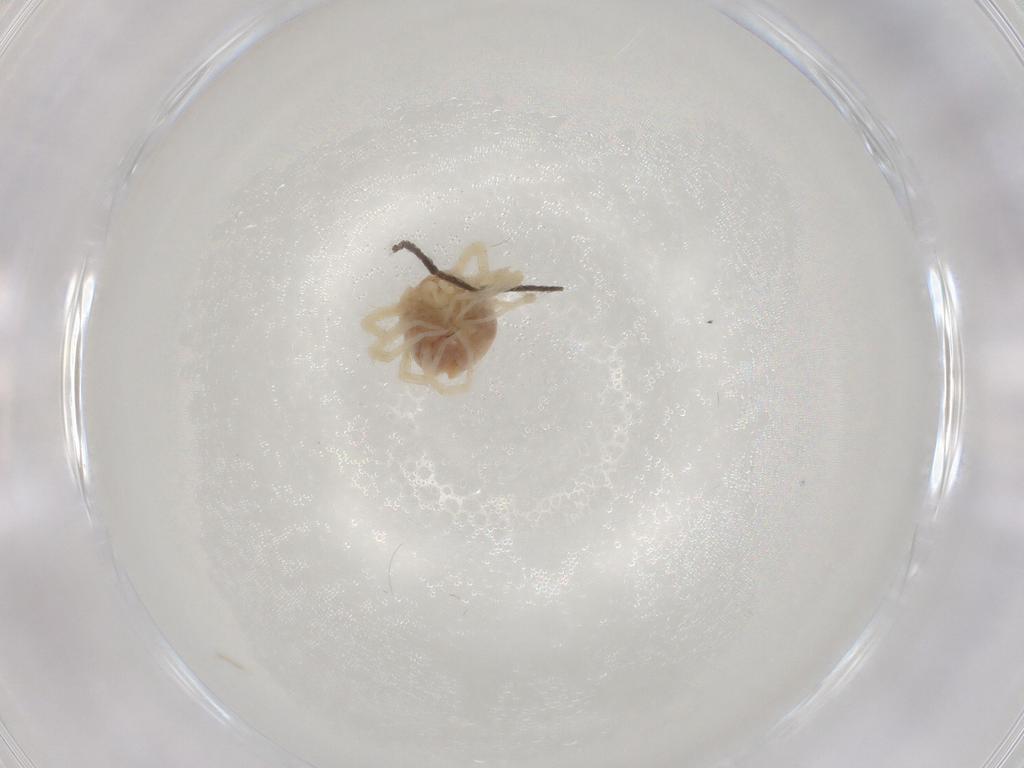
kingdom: Animalia
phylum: Arthropoda
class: Arachnida
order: Trombidiformes
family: Anystidae
